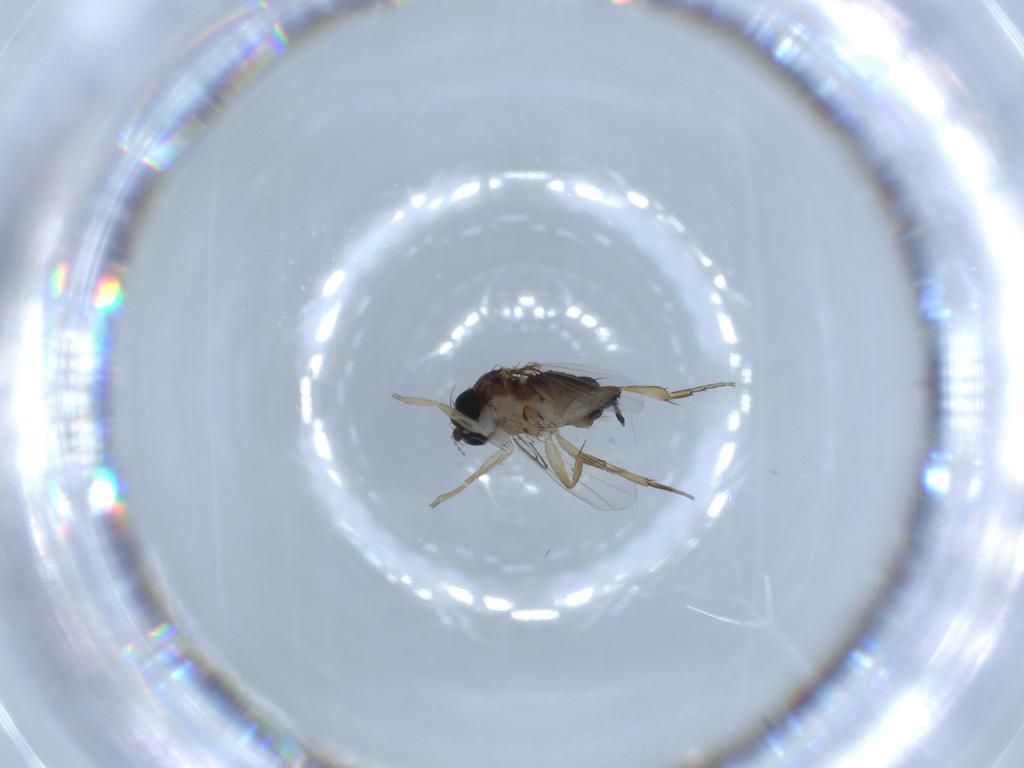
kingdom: Animalia
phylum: Arthropoda
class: Insecta
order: Diptera
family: Phoridae
